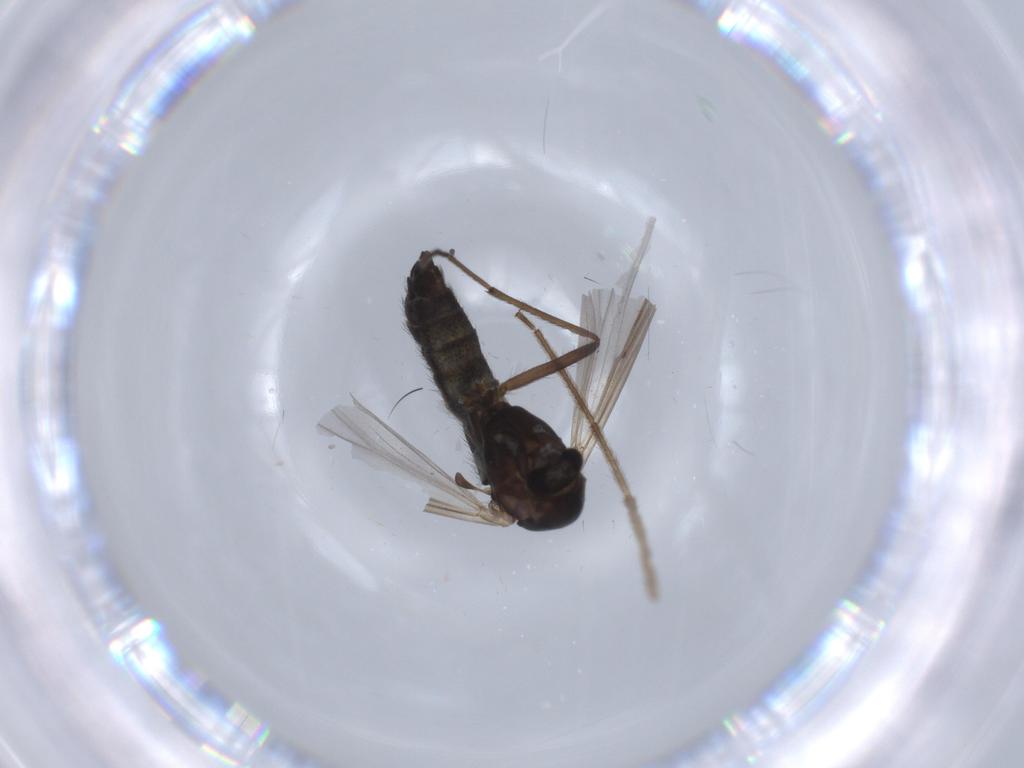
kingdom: Animalia
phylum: Arthropoda
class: Insecta
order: Diptera
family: Chironomidae
